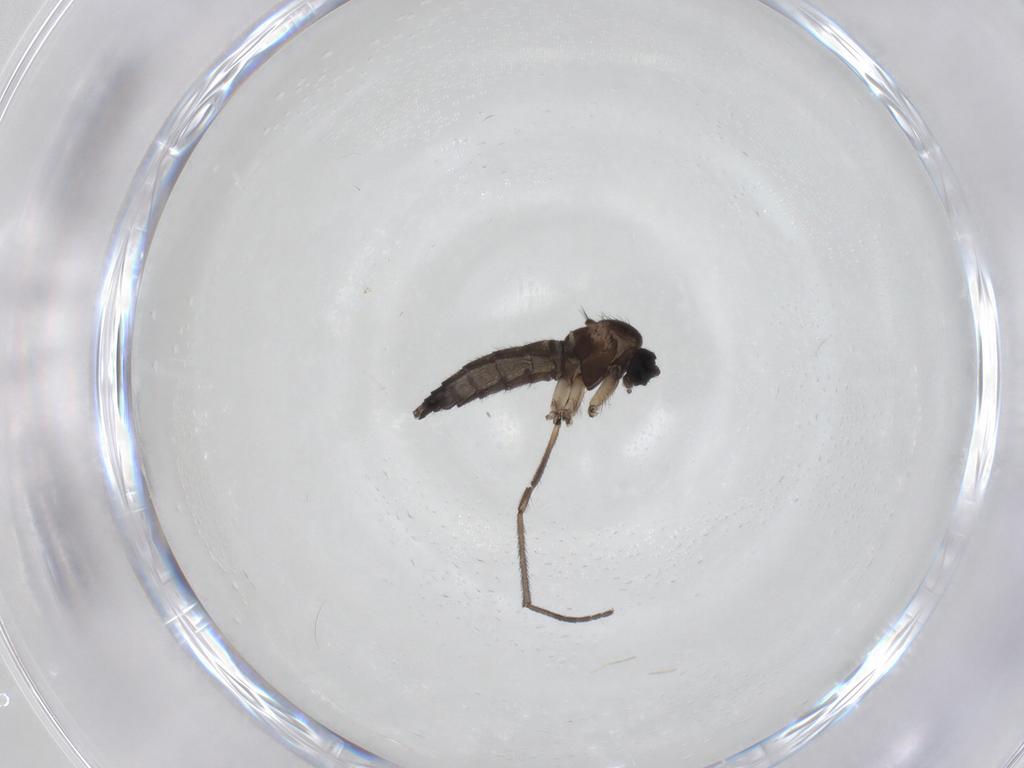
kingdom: Animalia
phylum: Arthropoda
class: Insecta
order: Diptera
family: Sciaridae
